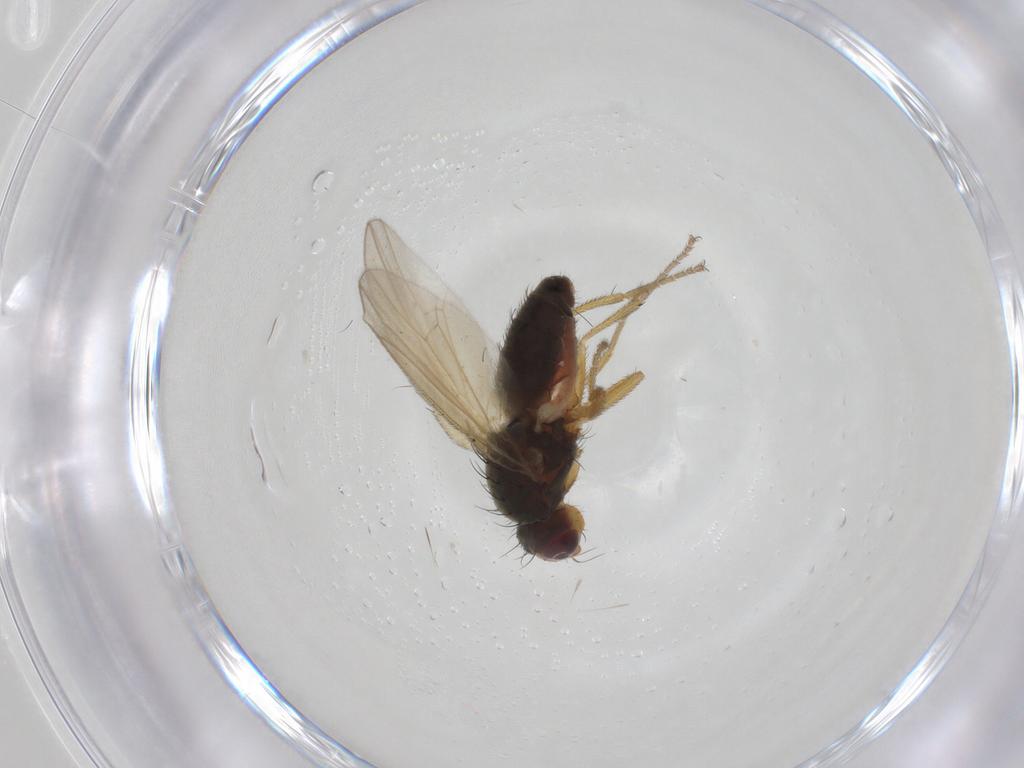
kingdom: Animalia
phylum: Arthropoda
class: Insecta
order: Diptera
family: Heleomyzidae
